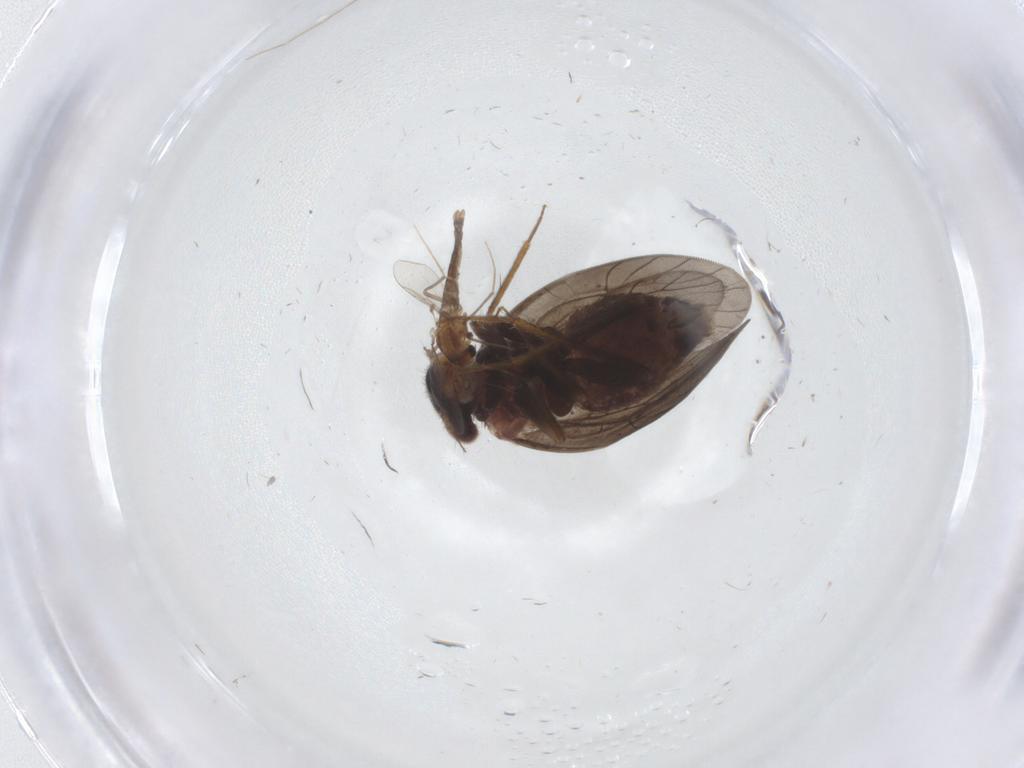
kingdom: Animalia
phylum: Arthropoda
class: Insecta
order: Psocodea
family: Lepidopsocidae
